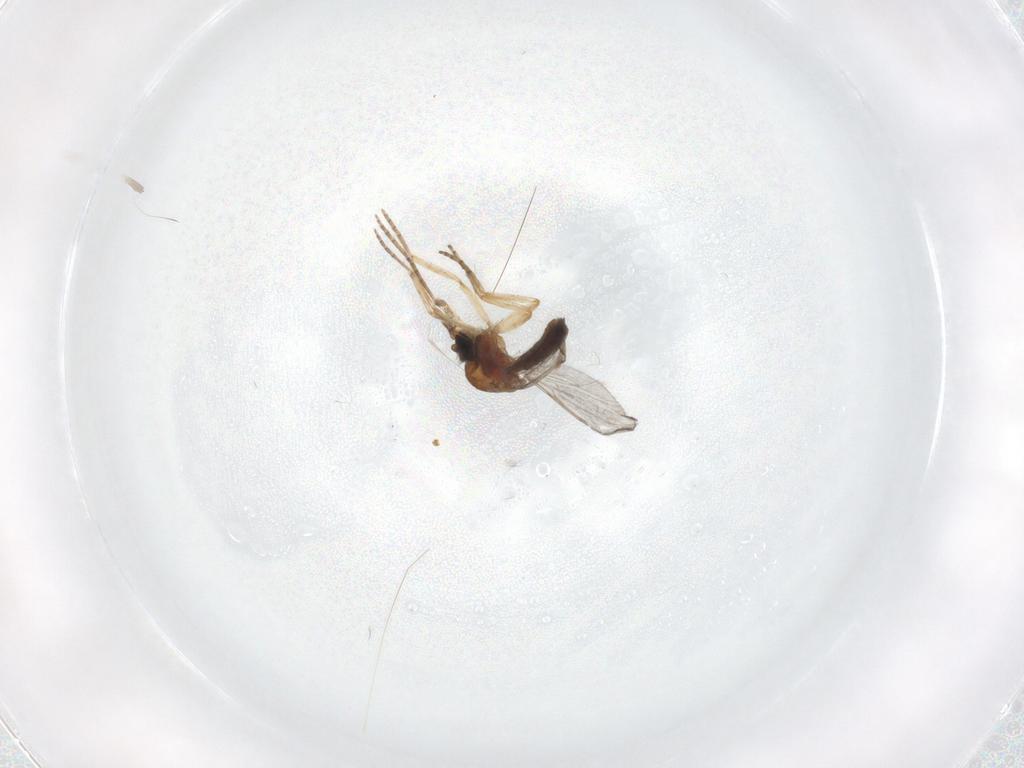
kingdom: Animalia
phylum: Arthropoda
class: Insecta
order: Diptera
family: Ceratopogonidae
